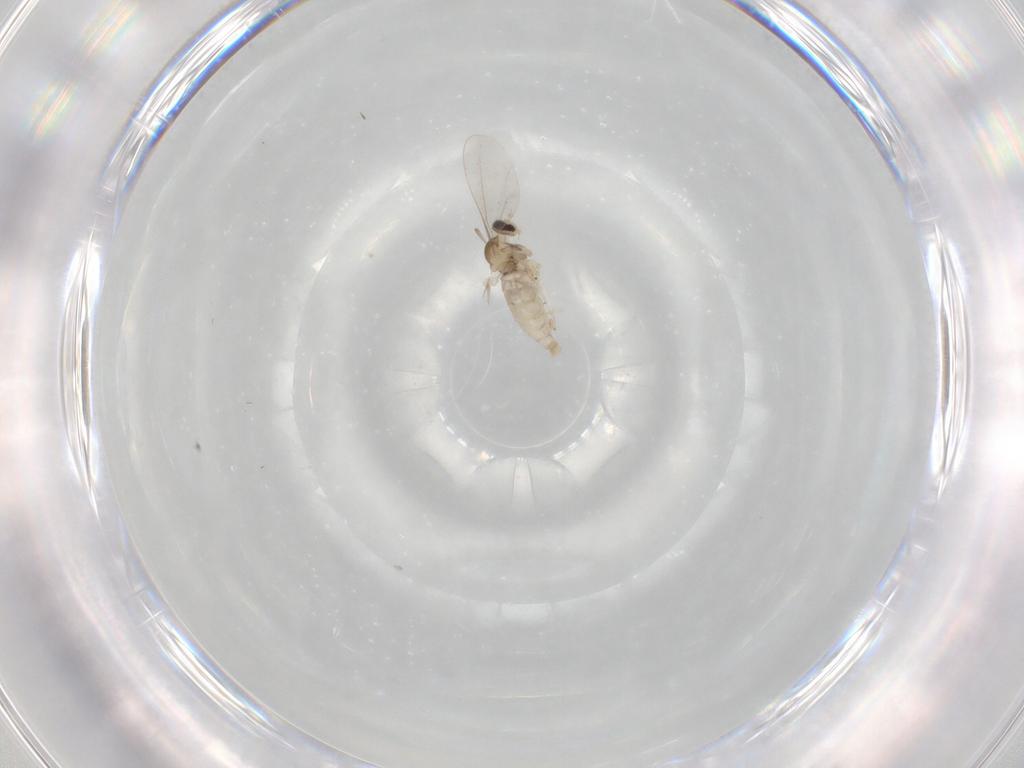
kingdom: Animalia
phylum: Arthropoda
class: Insecta
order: Diptera
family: Cecidomyiidae
